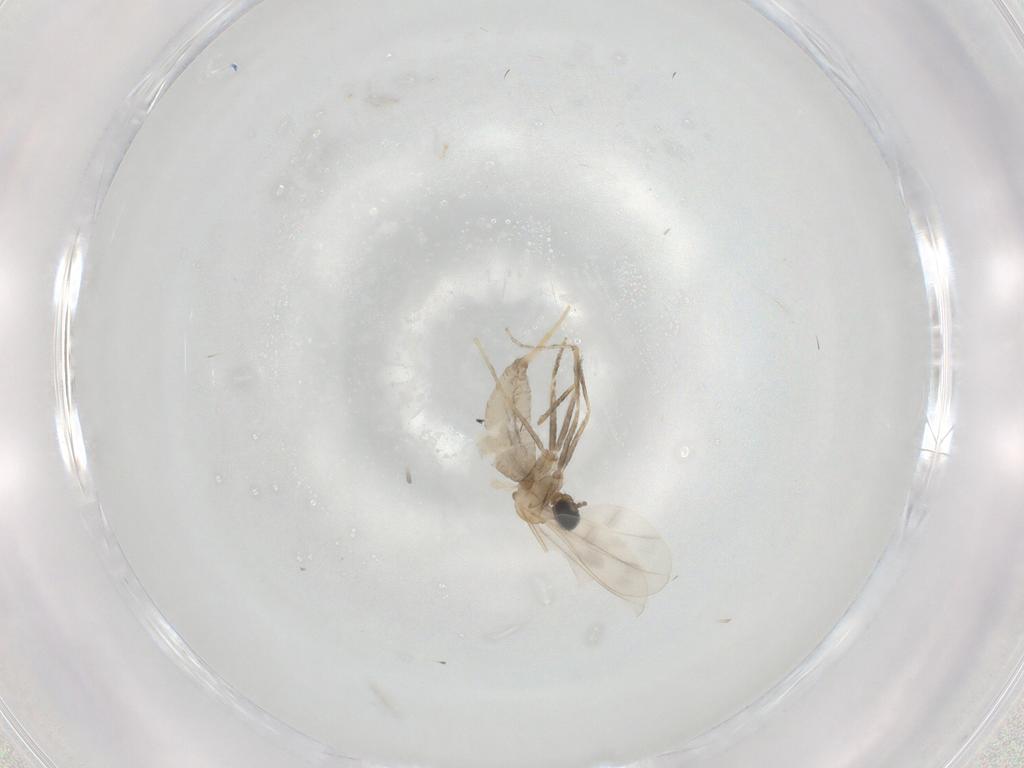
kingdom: Animalia
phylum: Arthropoda
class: Insecta
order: Diptera
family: Cecidomyiidae
